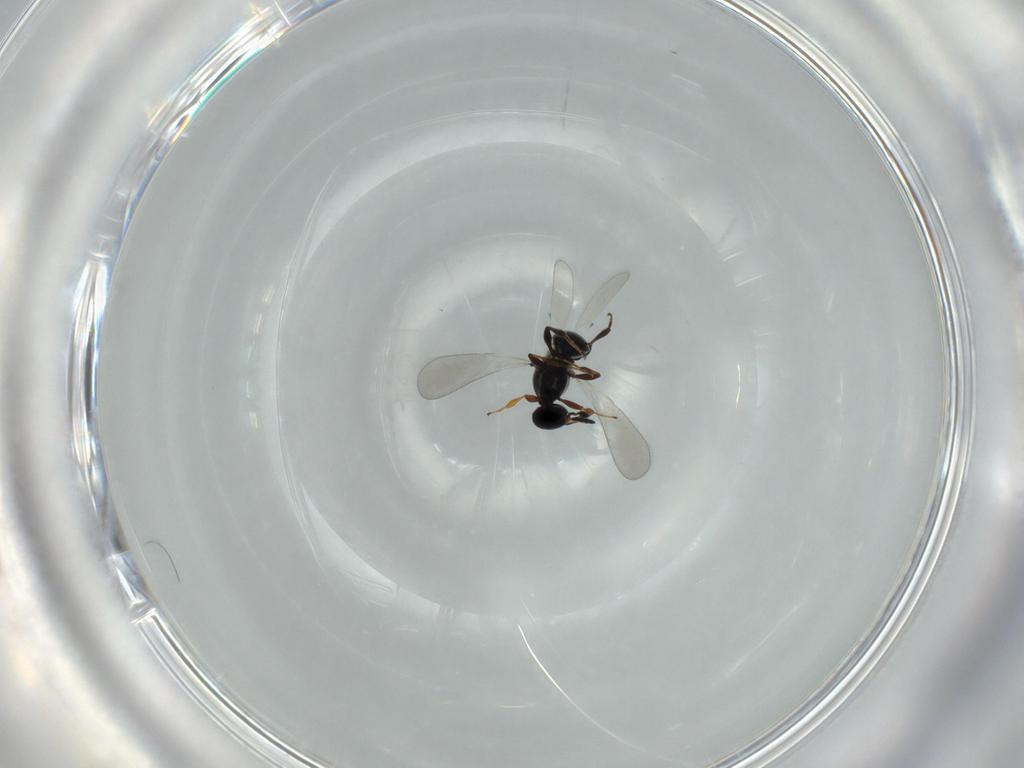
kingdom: Animalia
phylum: Arthropoda
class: Insecta
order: Hymenoptera
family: Platygastridae
